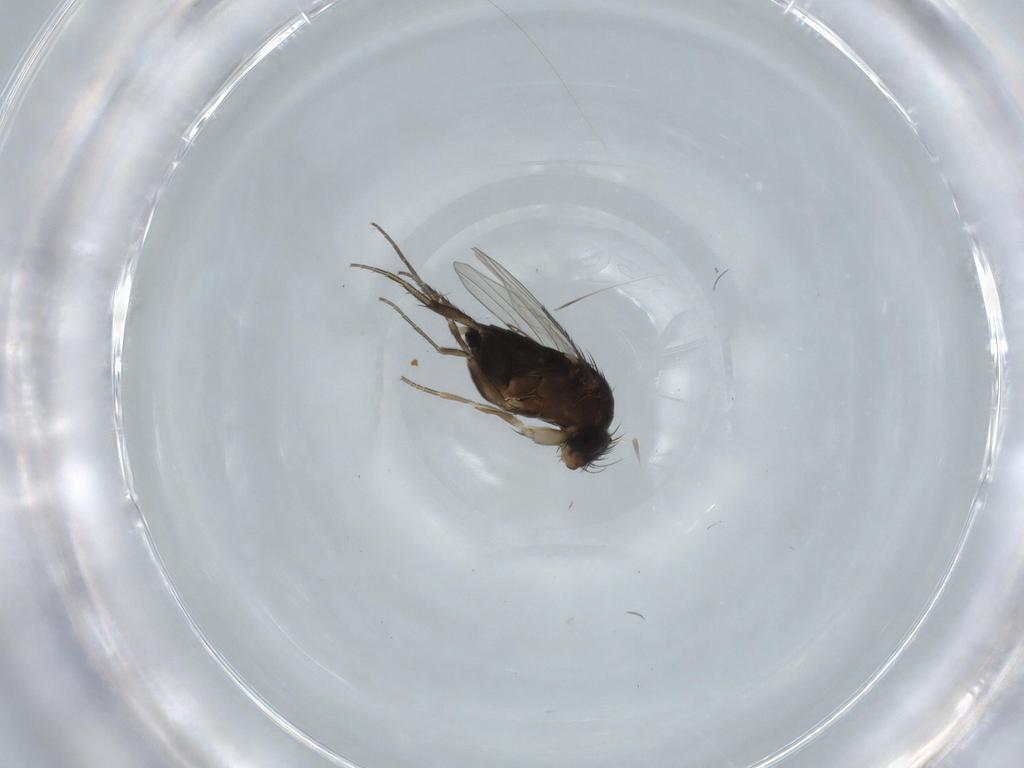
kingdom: Animalia
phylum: Arthropoda
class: Insecta
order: Diptera
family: Phoridae
